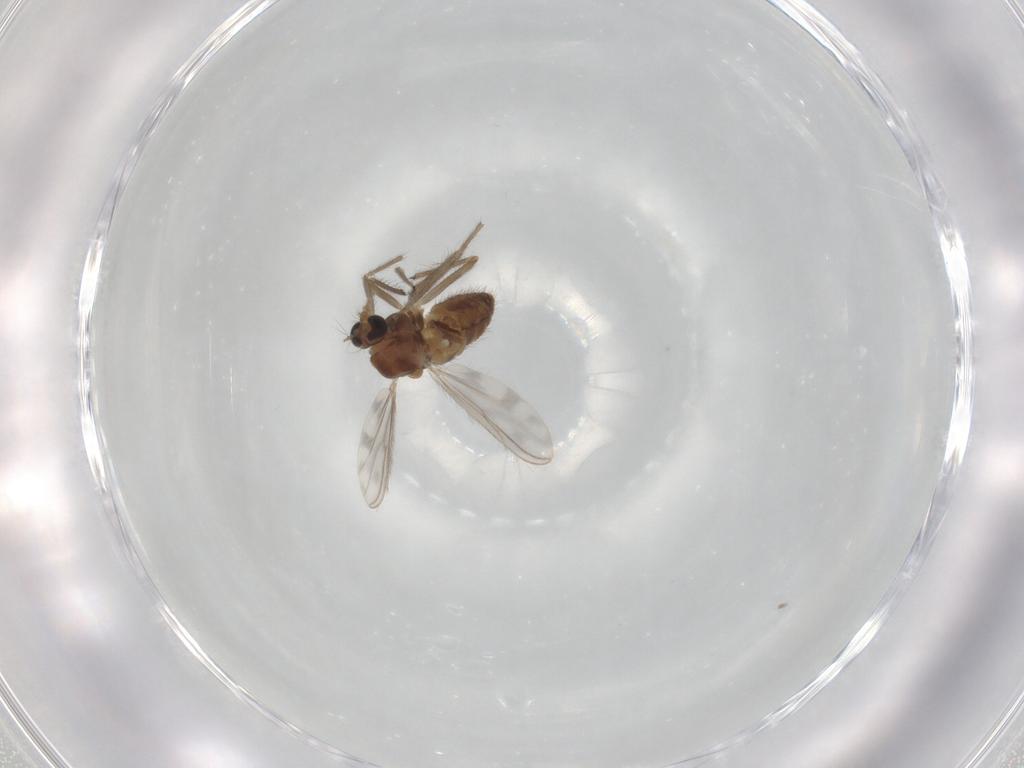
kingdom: Animalia
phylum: Arthropoda
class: Insecta
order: Diptera
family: Chironomidae
